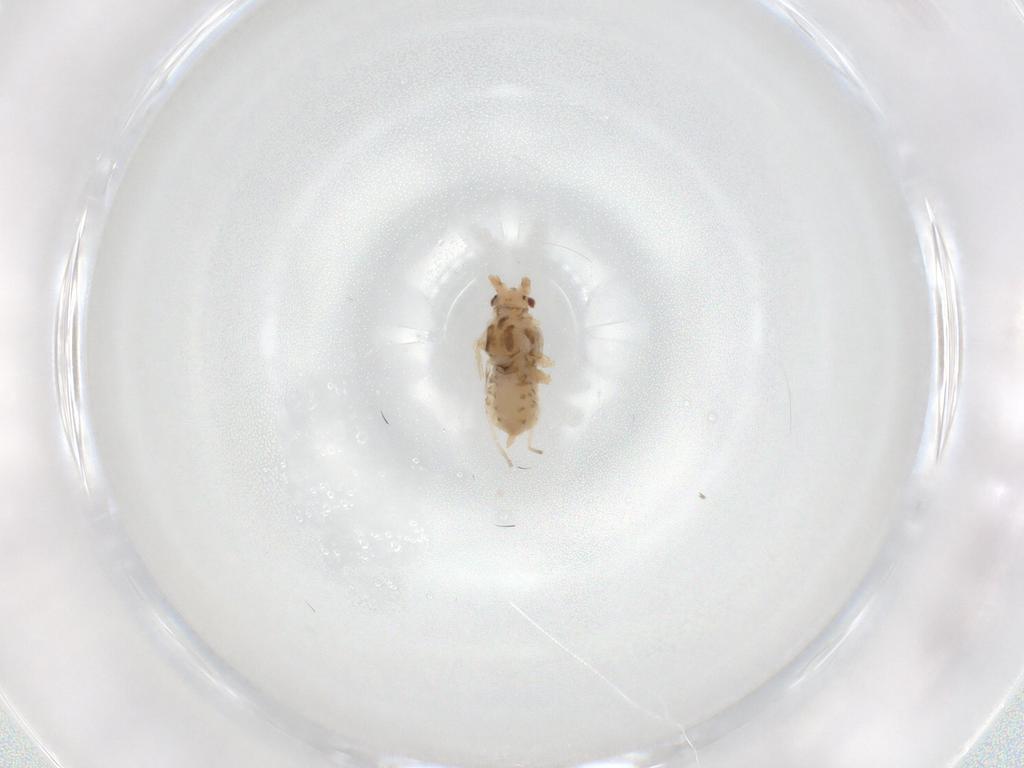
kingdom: Animalia
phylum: Arthropoda
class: Insecta
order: Hemiptera
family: Aphididae
